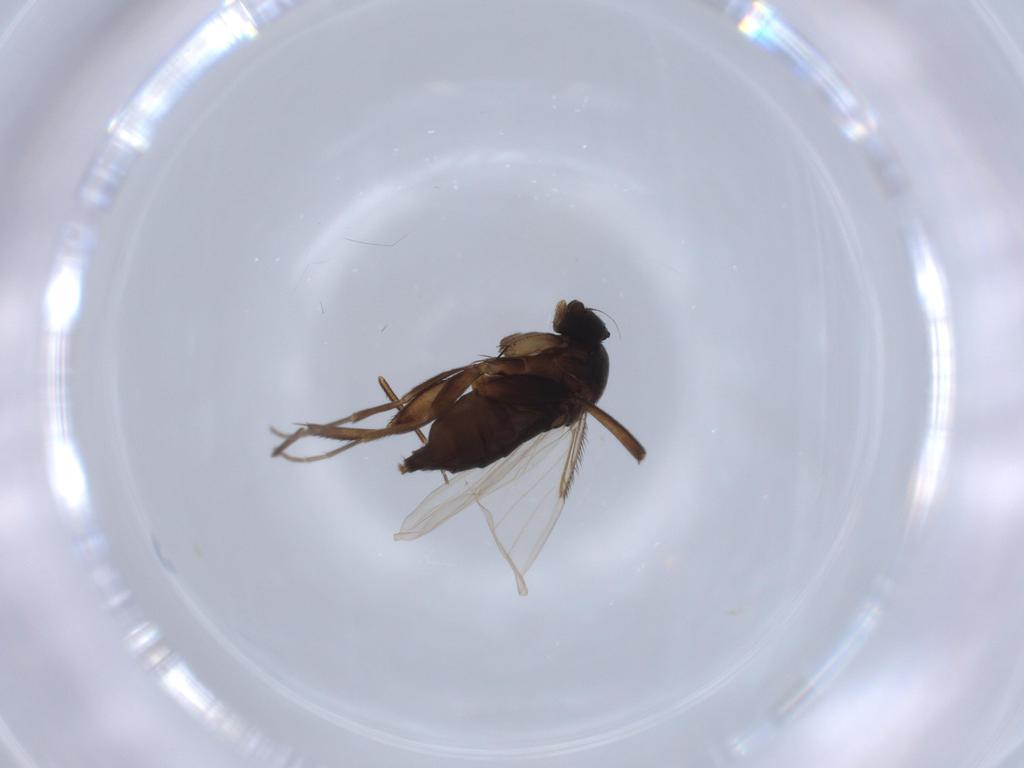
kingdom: Animalia
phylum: Arthropoda
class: Insecta
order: Diptera
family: Phoridae
